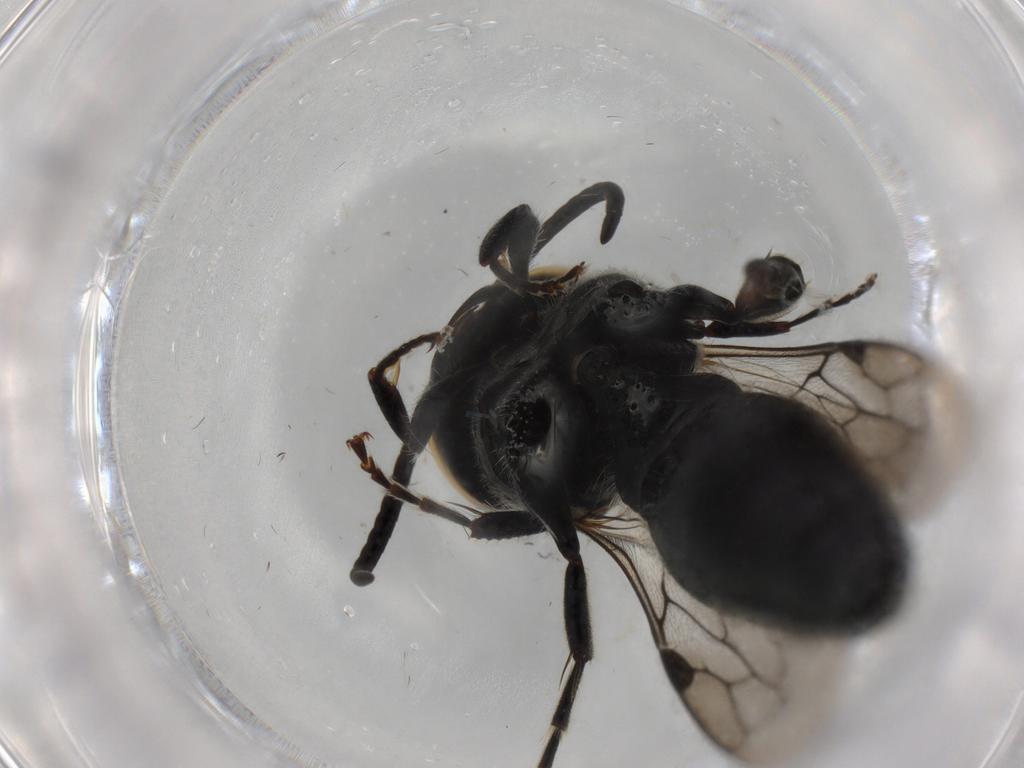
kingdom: Animalia
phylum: Arthropoda
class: Insecta
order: Hymenoptera
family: Tiphiidae
